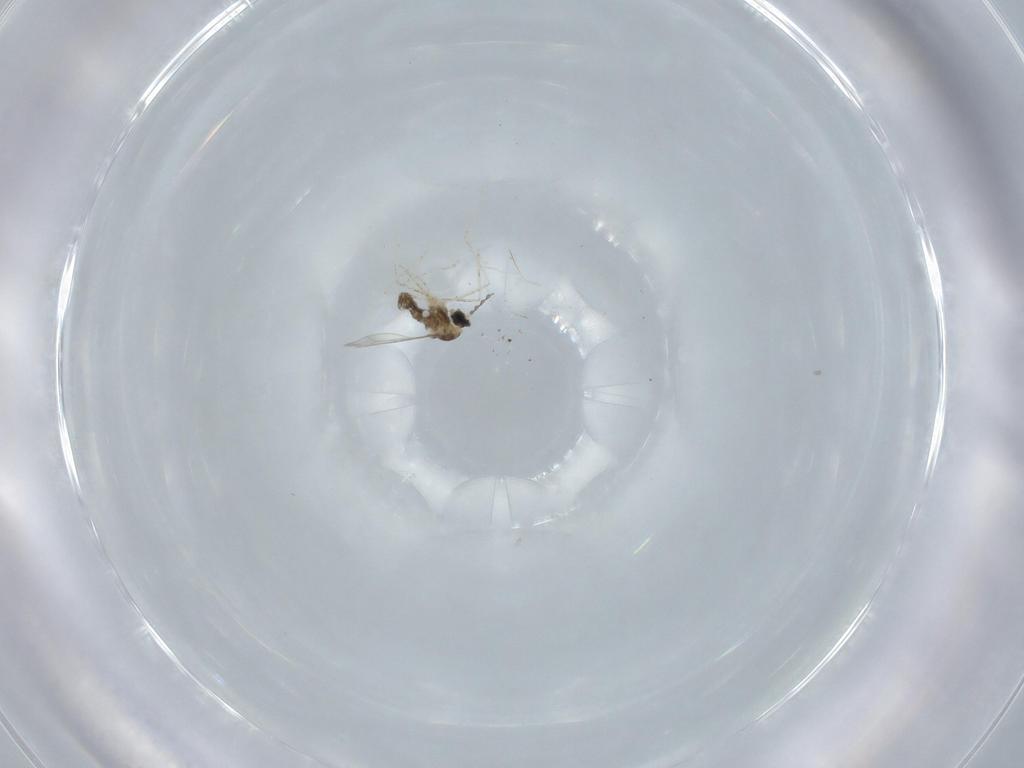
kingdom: Animalia
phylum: Arthropoda
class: Insecta
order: Diptera
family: Cecidomyiidae
